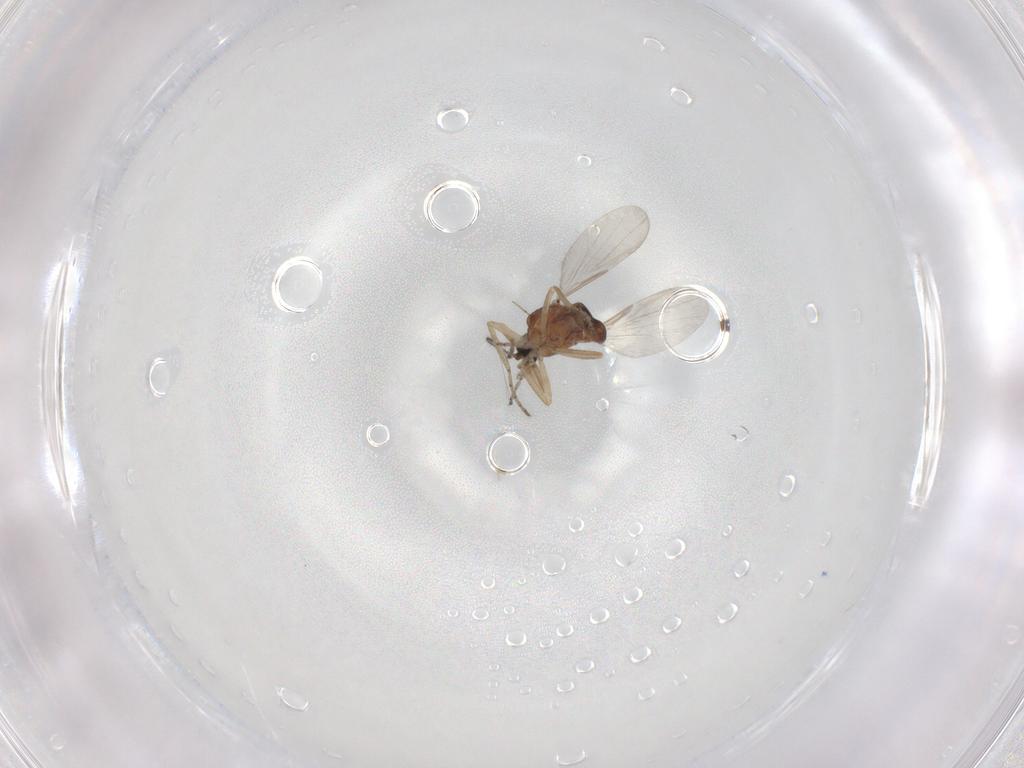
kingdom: Animalia
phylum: Arthropoda
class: Insecta
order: Diptera
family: Ceratopogonidae
